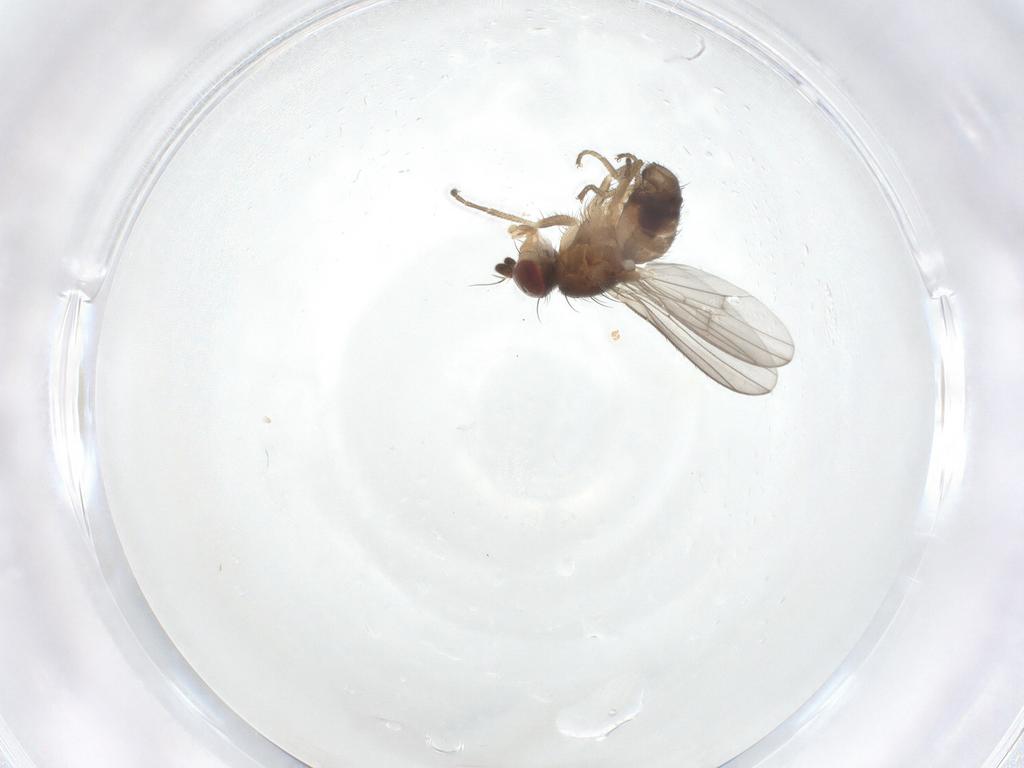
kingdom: Animalia
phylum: Arthropoda
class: Insecta
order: Diptera
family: Heleomyzidae
